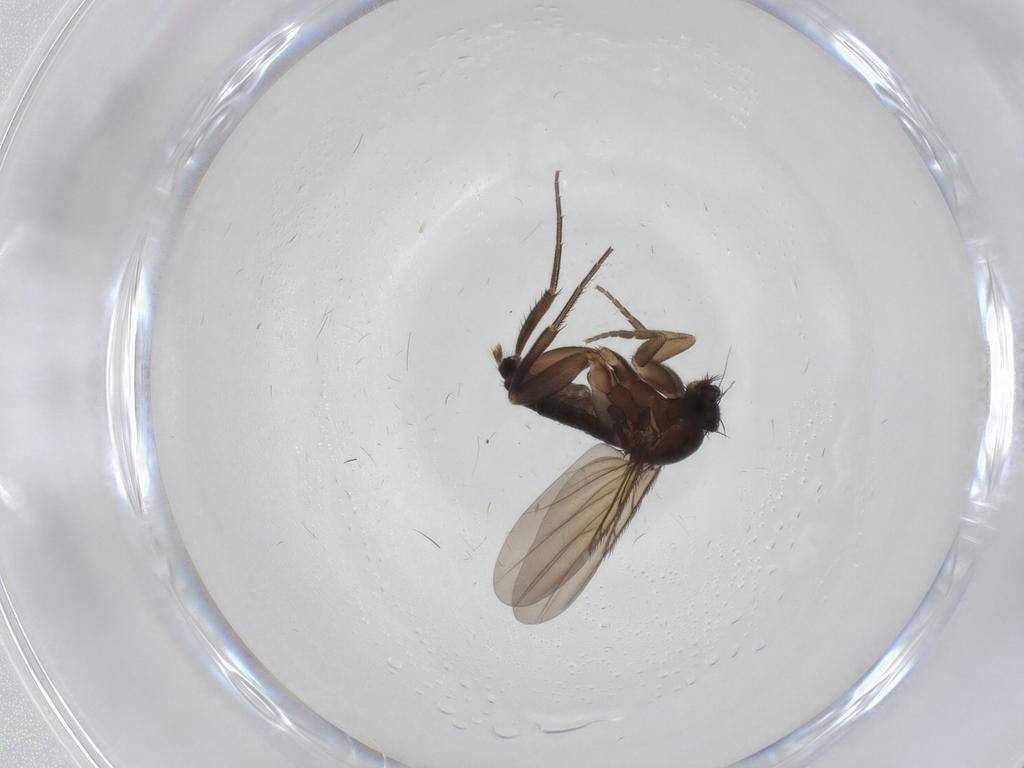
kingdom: Animalia
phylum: Arthropoda
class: Insecta
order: Diptera
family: Phoridae
